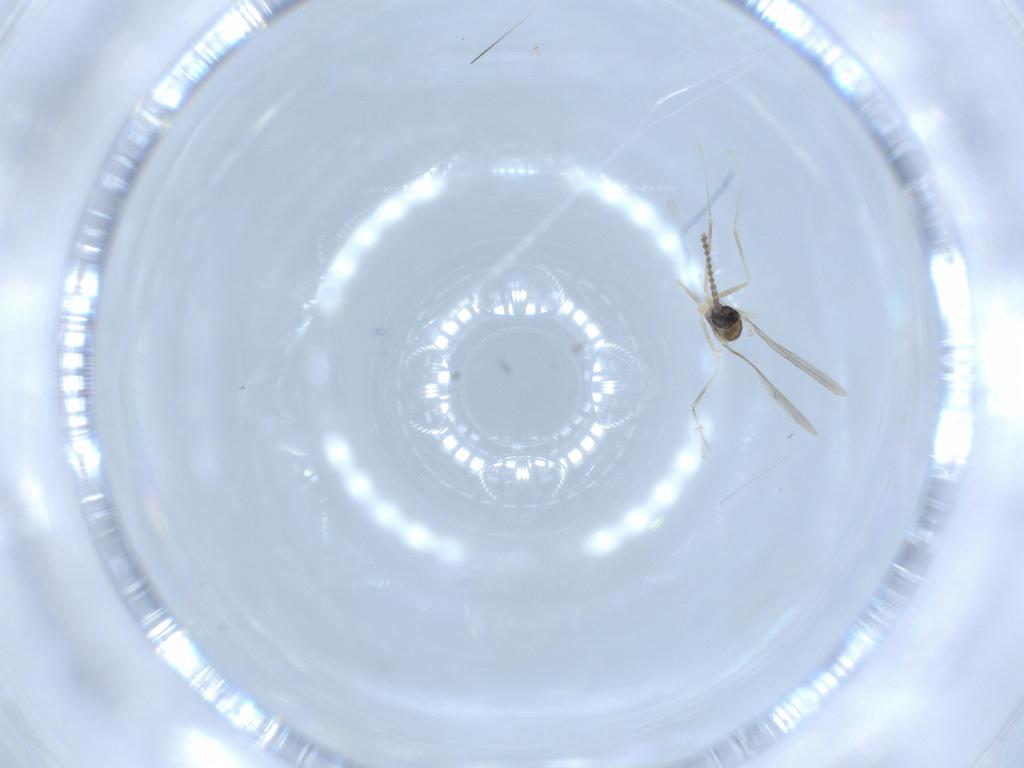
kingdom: Animalia
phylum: Arthropoda
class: Insecta
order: Diptera
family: Cecidomyiidae
